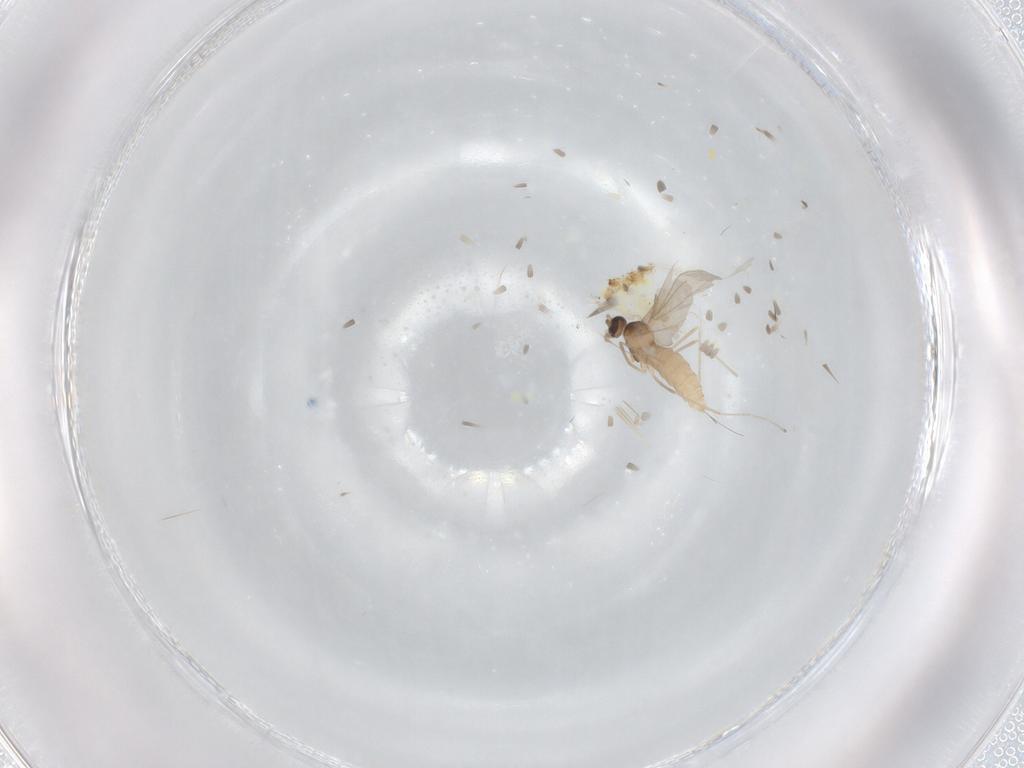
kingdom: Animalia
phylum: Arthropoda
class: Insecta
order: Diptera
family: Cecidomyiidae
